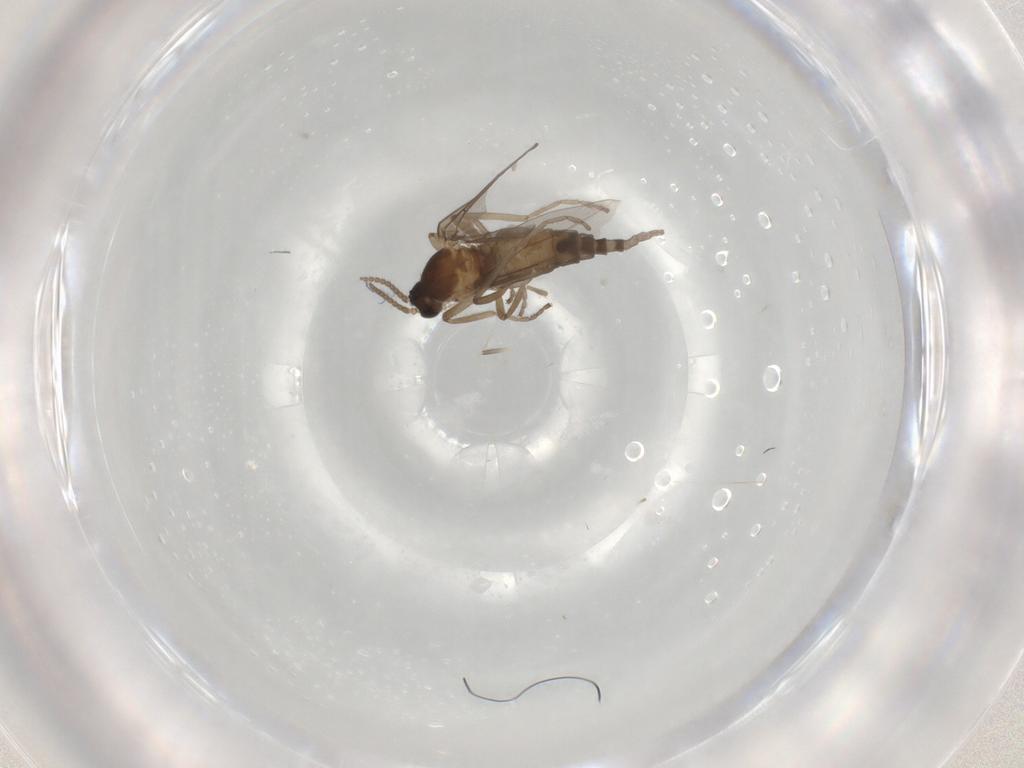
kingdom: Animalia
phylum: Arthropoda
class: Insecta
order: Diptera
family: Cecidomyiidae
